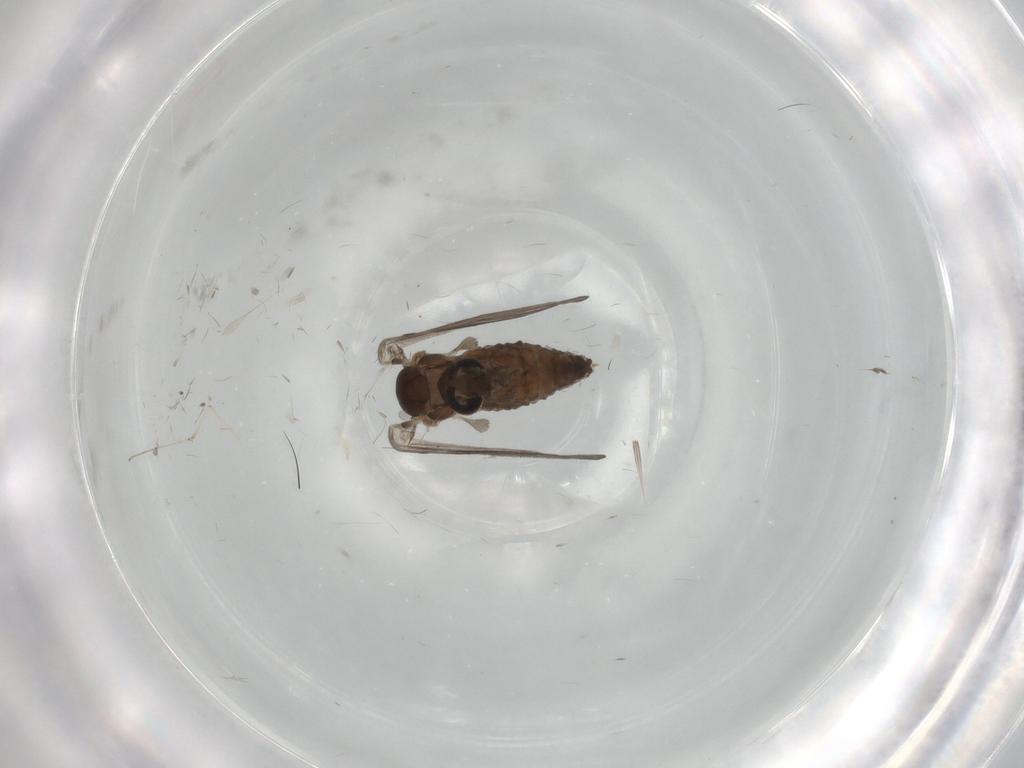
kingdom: Animalia
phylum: Arthropoda
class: Insecta
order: Diptera
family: Psychodidae
